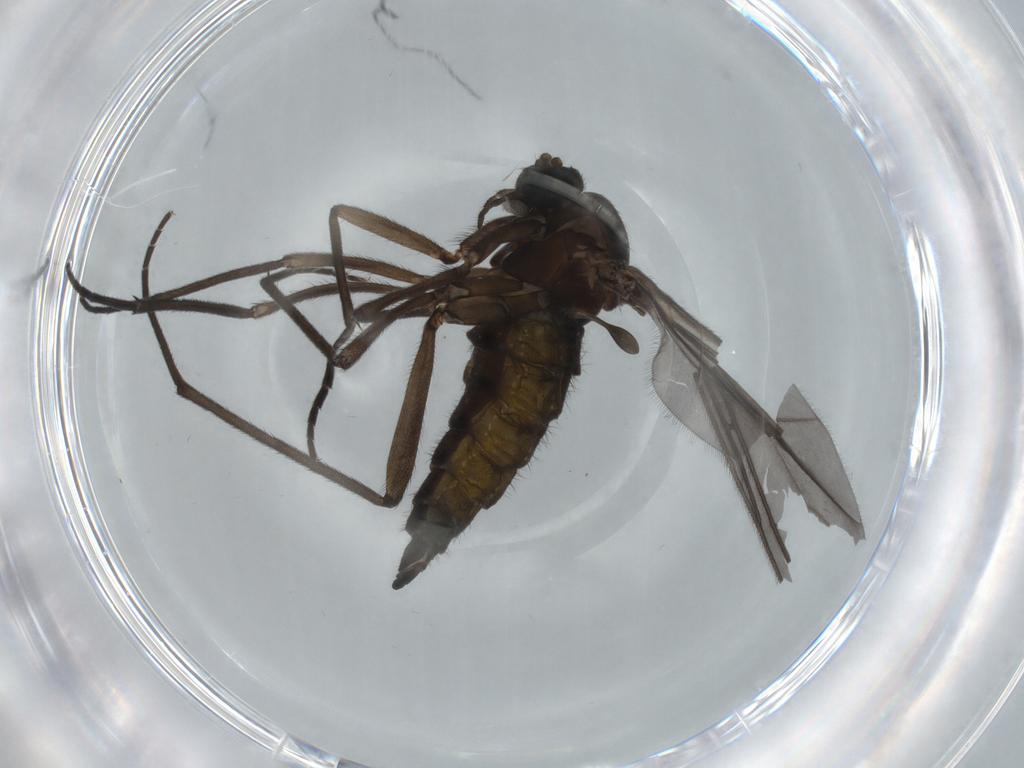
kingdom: Animalia
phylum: Arthropoda
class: Insecta
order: Diptera
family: Sciaridae
